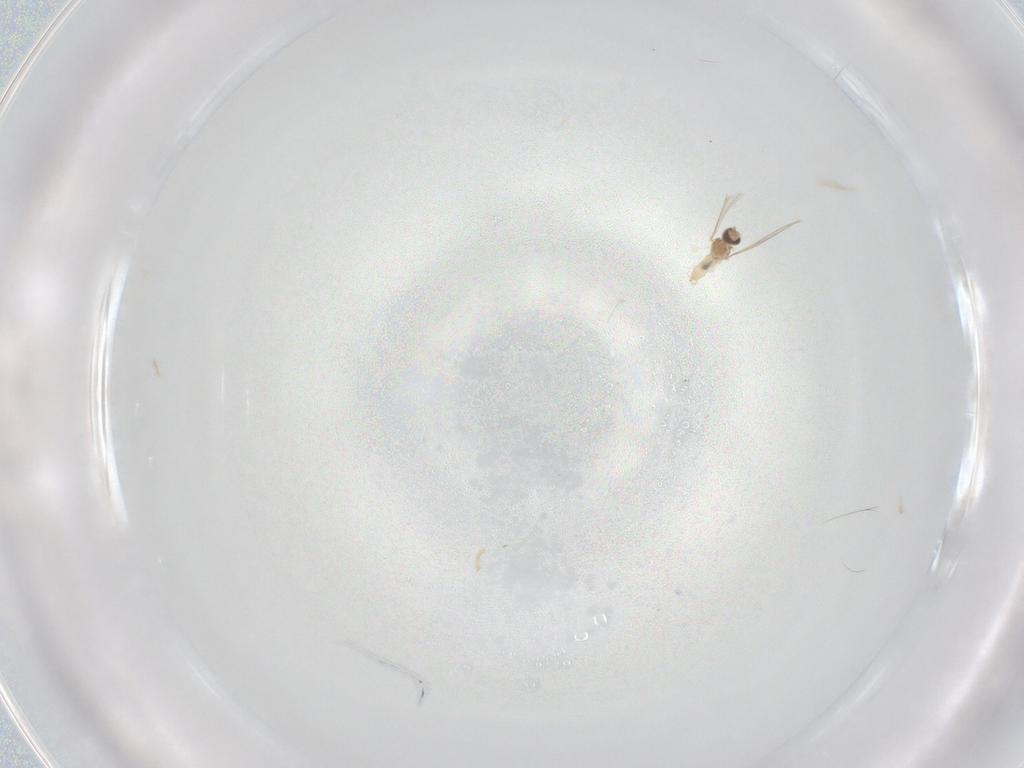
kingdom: Animalia
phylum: Arthropoda
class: Insecta
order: Diptera
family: Cecidomyiidae
